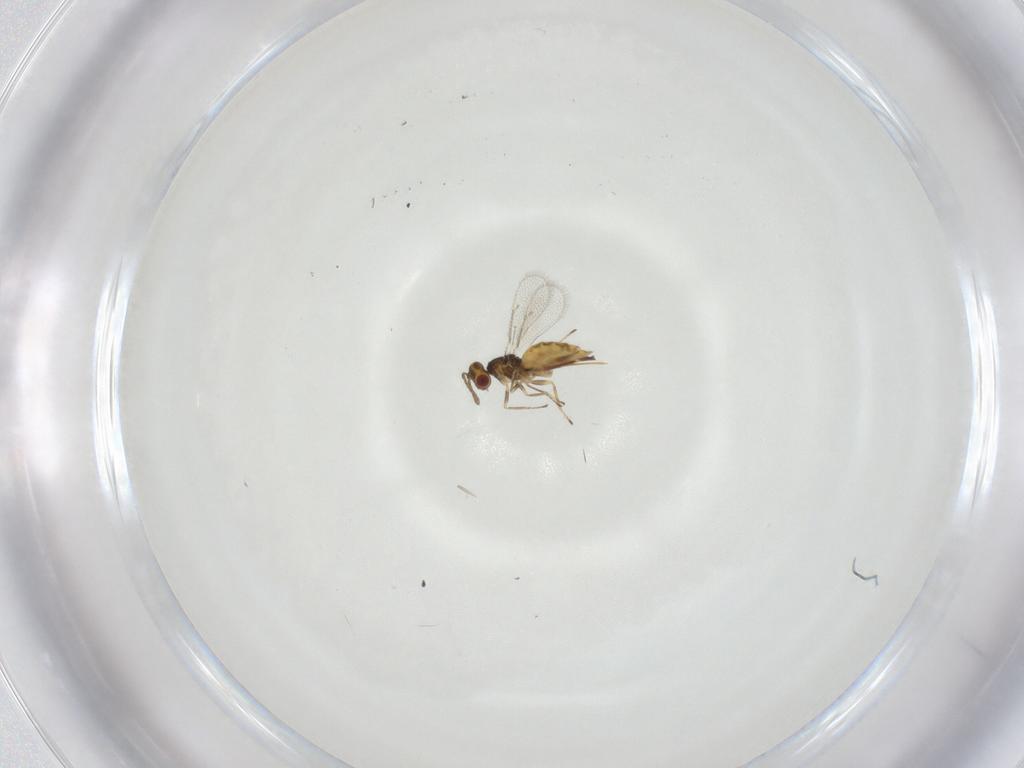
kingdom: Animalia
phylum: Arthropoda
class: Insecta
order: Hymenoptera
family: Eulophidae
